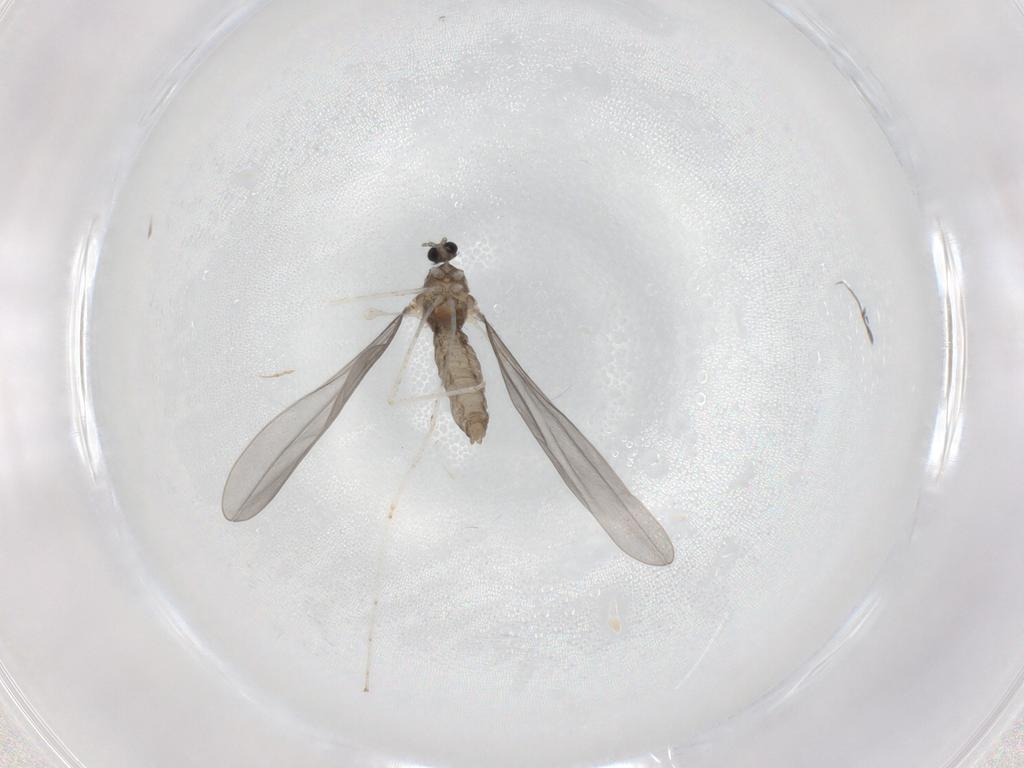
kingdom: Animalia
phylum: Arthropoda
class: Insecta
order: Diptera
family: Cecidomyiidae
